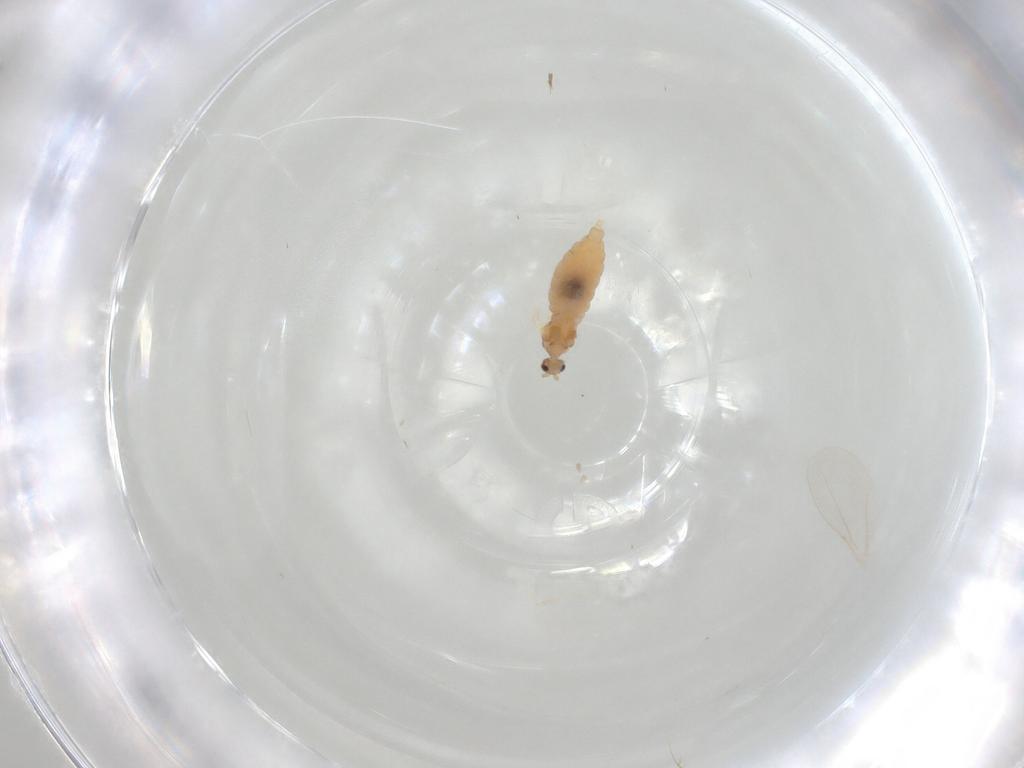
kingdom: Animalia
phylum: Arthropoda
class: Insecta
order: Diptera
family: Cecidomyiidae
